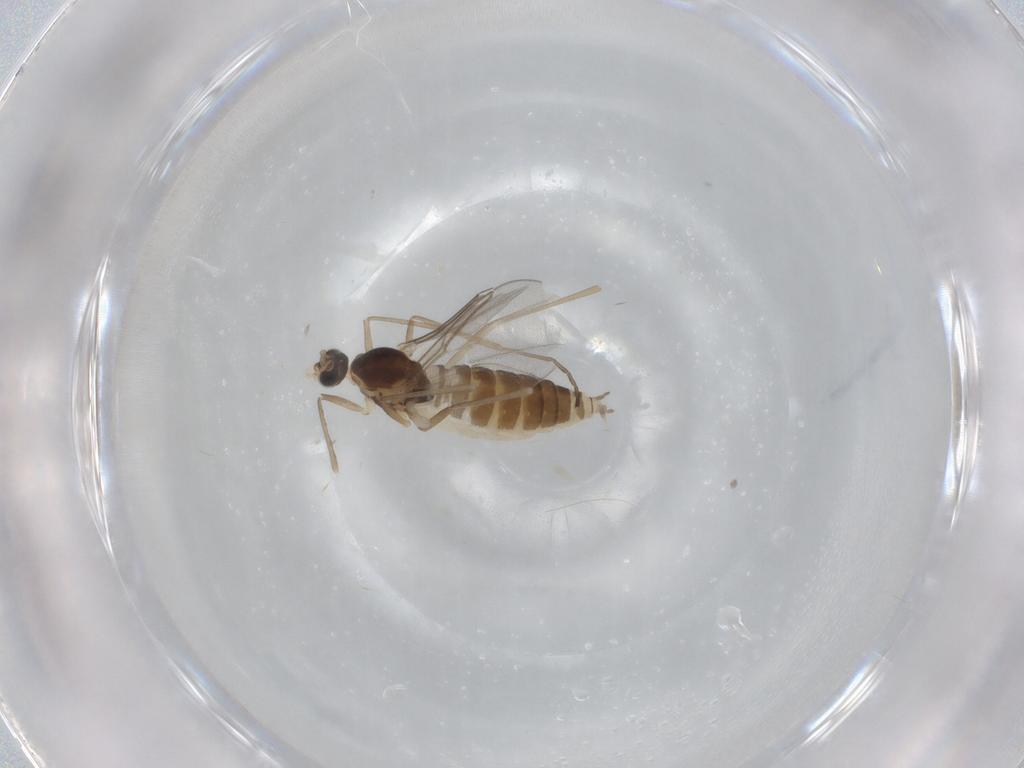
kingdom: Animalia
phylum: Arthropoda
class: Insecta
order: Diptera
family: Cecidomyiidae
